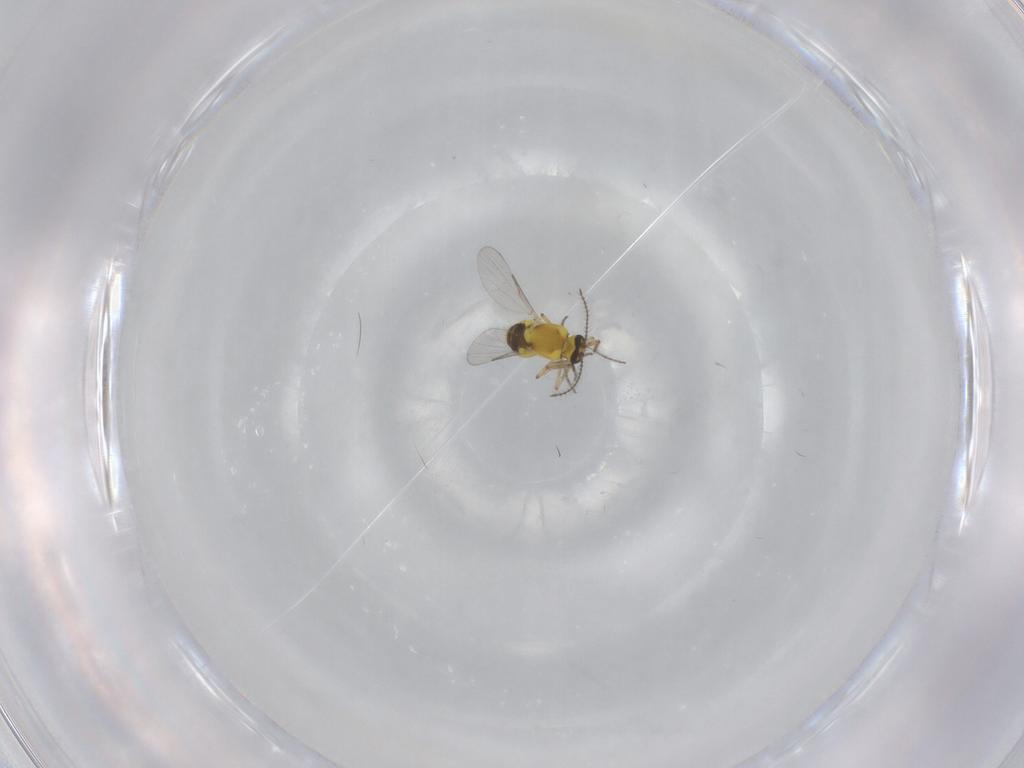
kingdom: Animalia
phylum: Arthropoda
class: Insecta
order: Diptera
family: Ceratopogonidae
